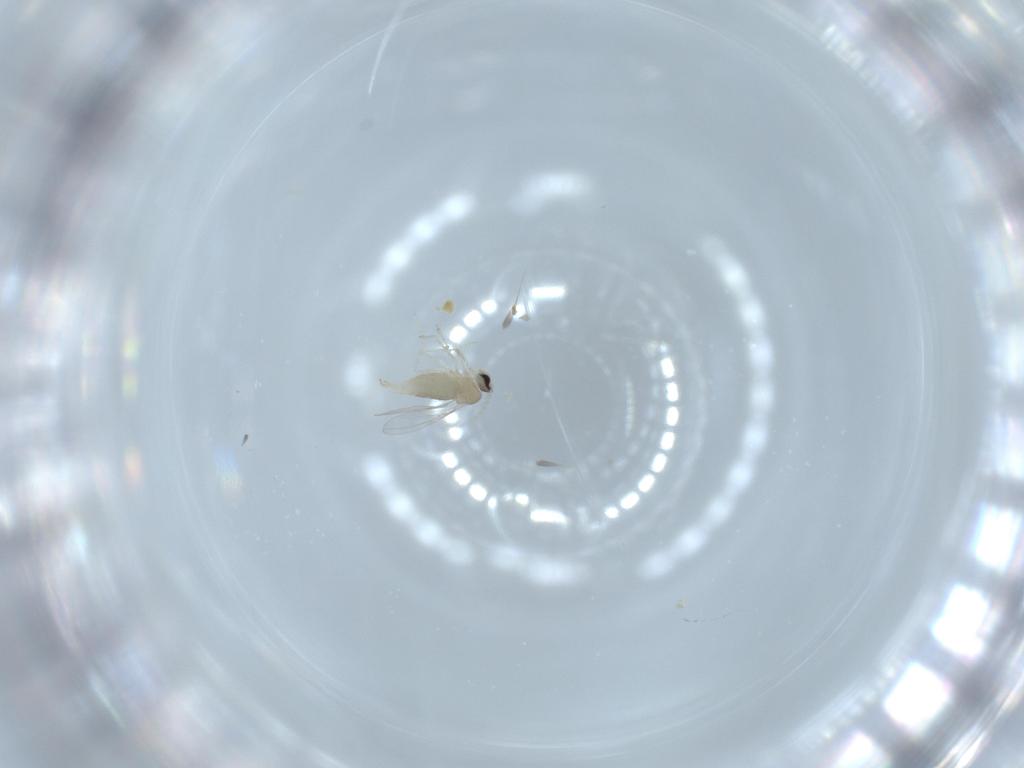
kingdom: Animalia
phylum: Arthropoda
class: Insecta
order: Diptera
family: Cecidomyiidae
